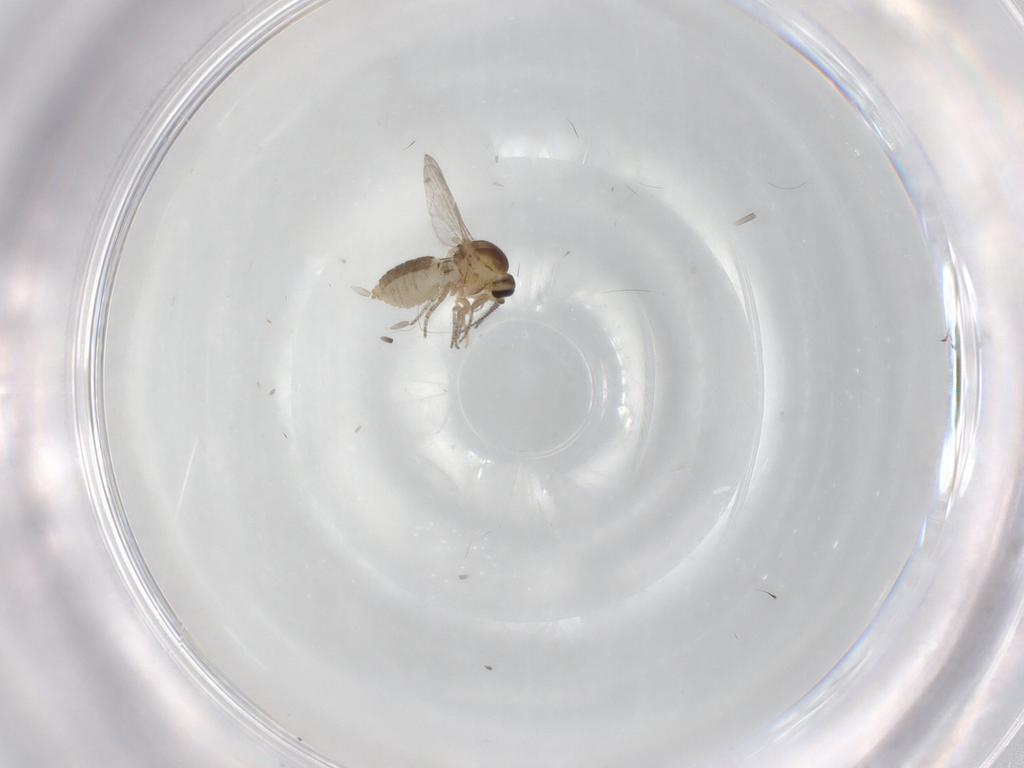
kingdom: Animalia
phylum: Arthropoda
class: Insecta
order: Diptera
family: Ceratopogonidae
